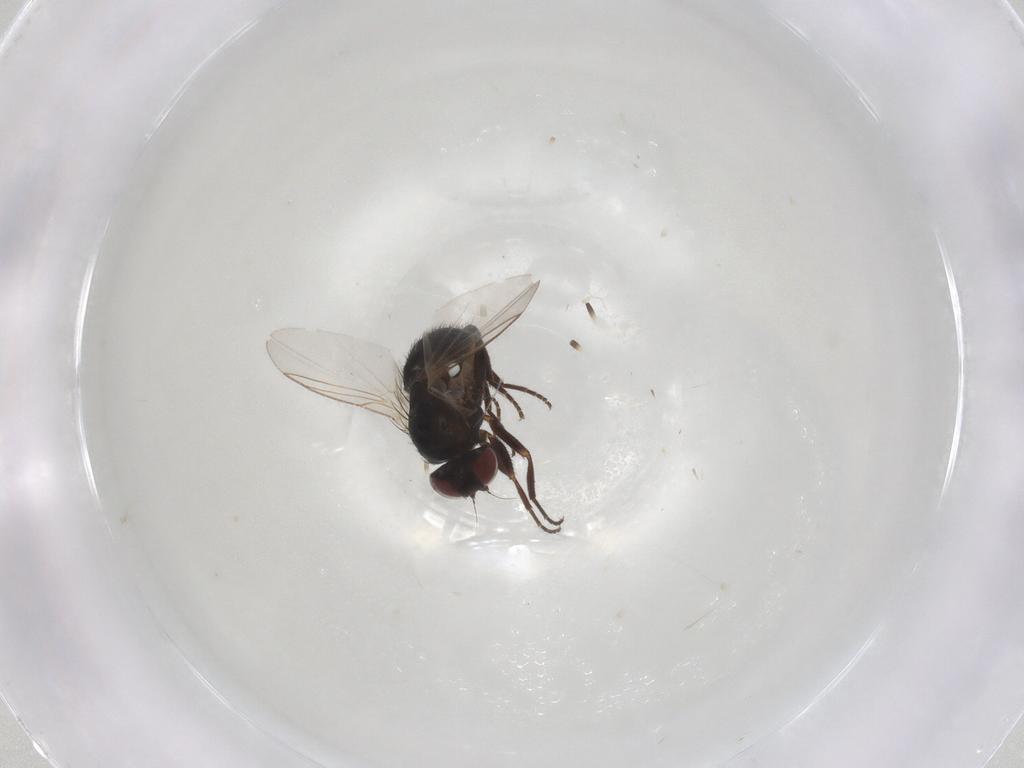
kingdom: Animalia
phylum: Arthropoda
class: Insecta
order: Diptera
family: Ceratopogonidae
